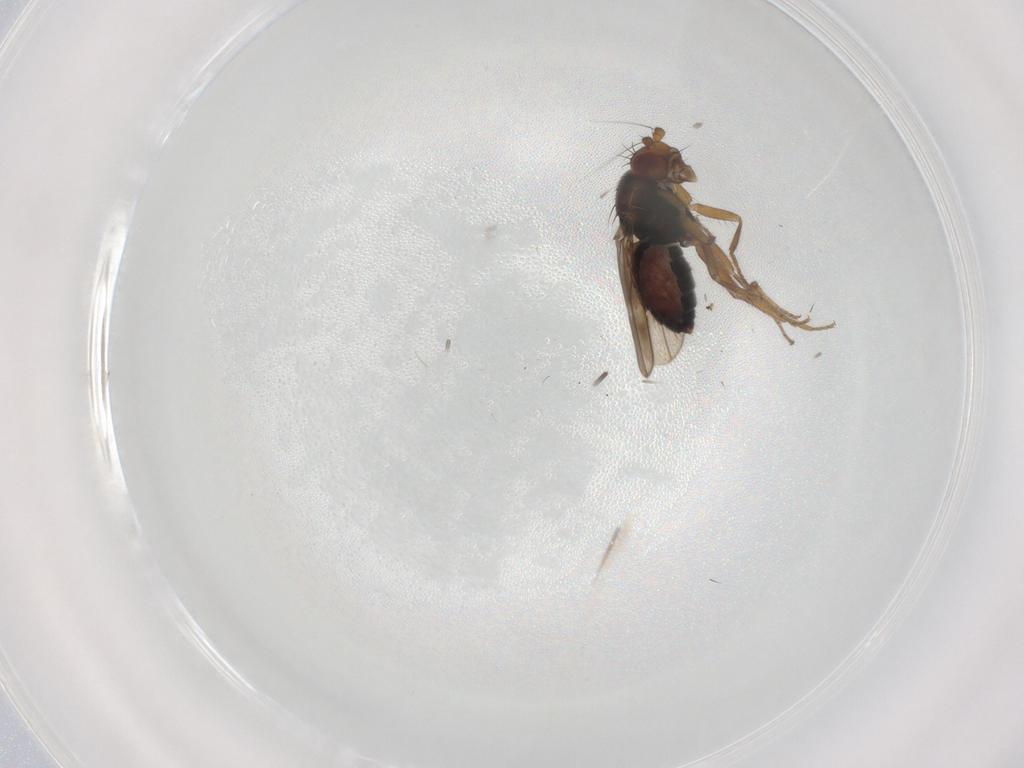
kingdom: Animalia
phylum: Arthropoda
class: Insecta
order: Diptera
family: Sphaeroceridae
